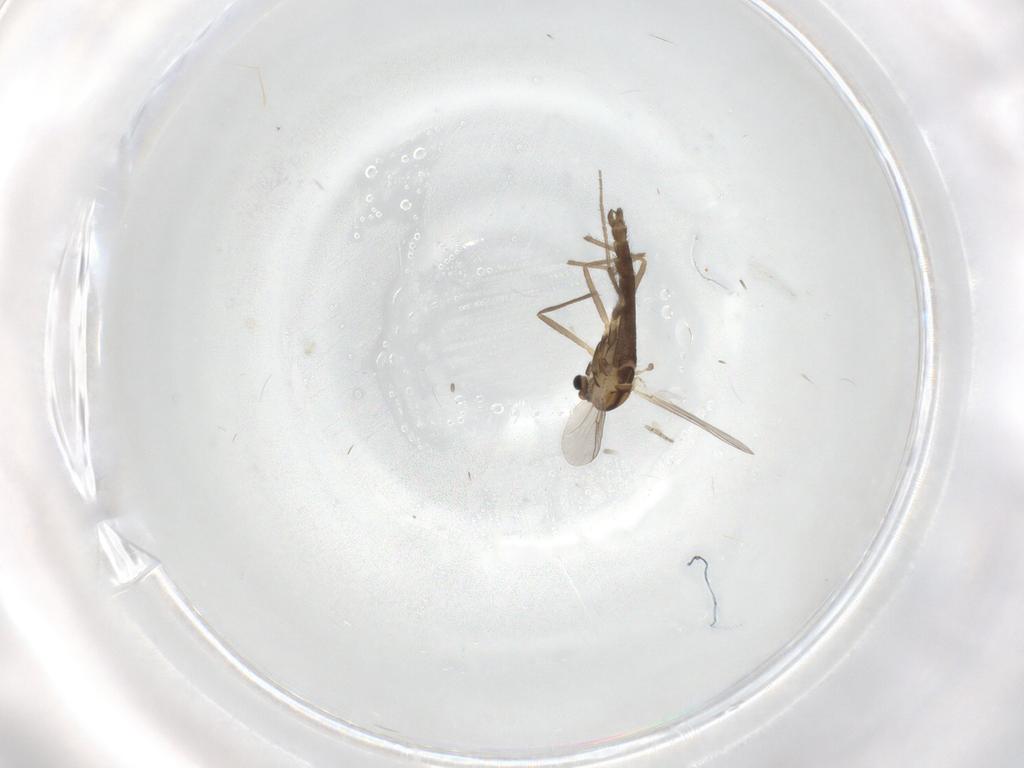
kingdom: Animalia
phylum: Arthropoda
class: Insecta
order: Diptera
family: Chironomidae
